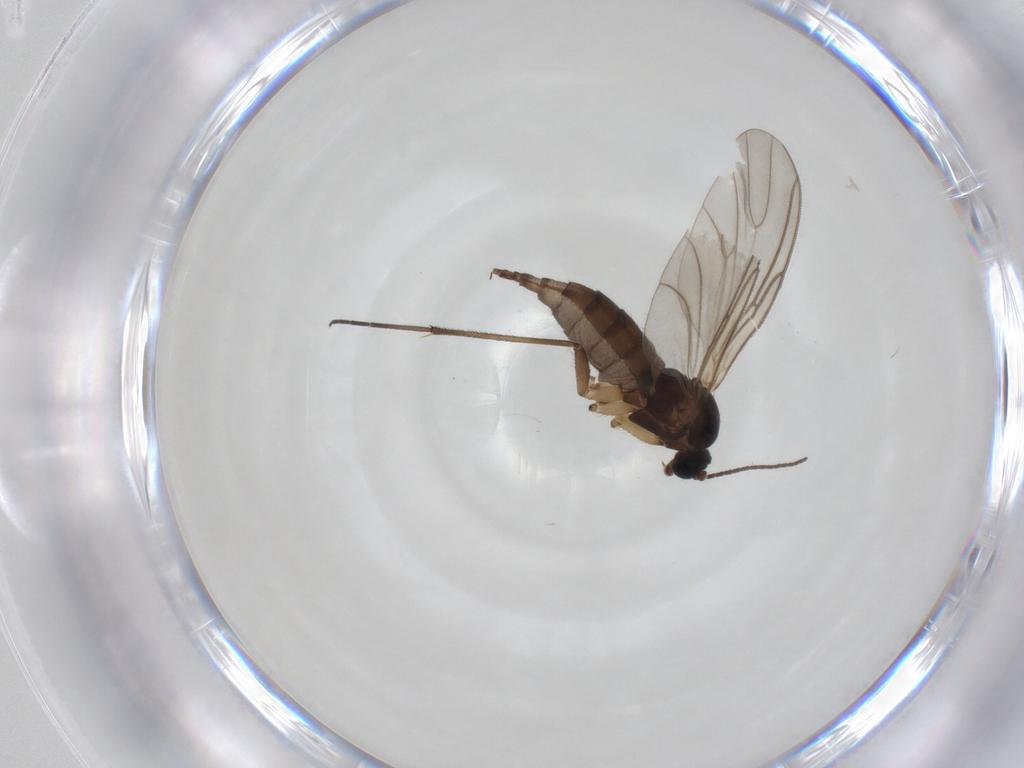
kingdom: Animalia
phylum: Arthropoda
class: Insecta
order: Diptera
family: Sciaridae
